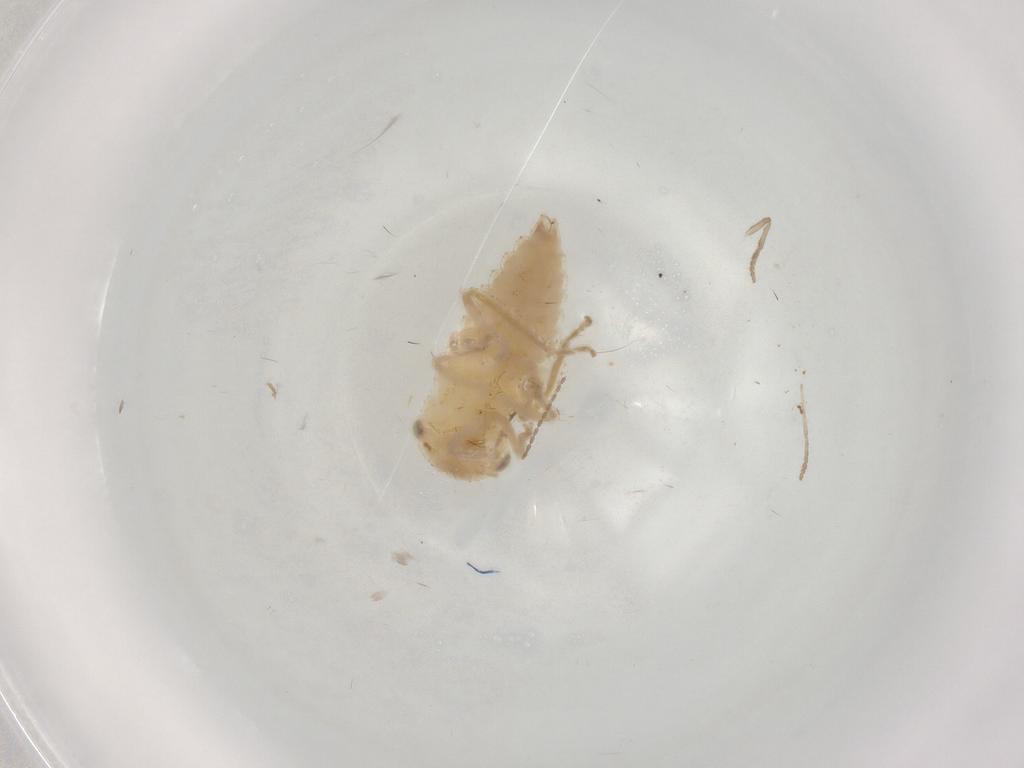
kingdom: Animalia
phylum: Arthropoda
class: Insecta
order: Hemiptera
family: Cicadellidae
